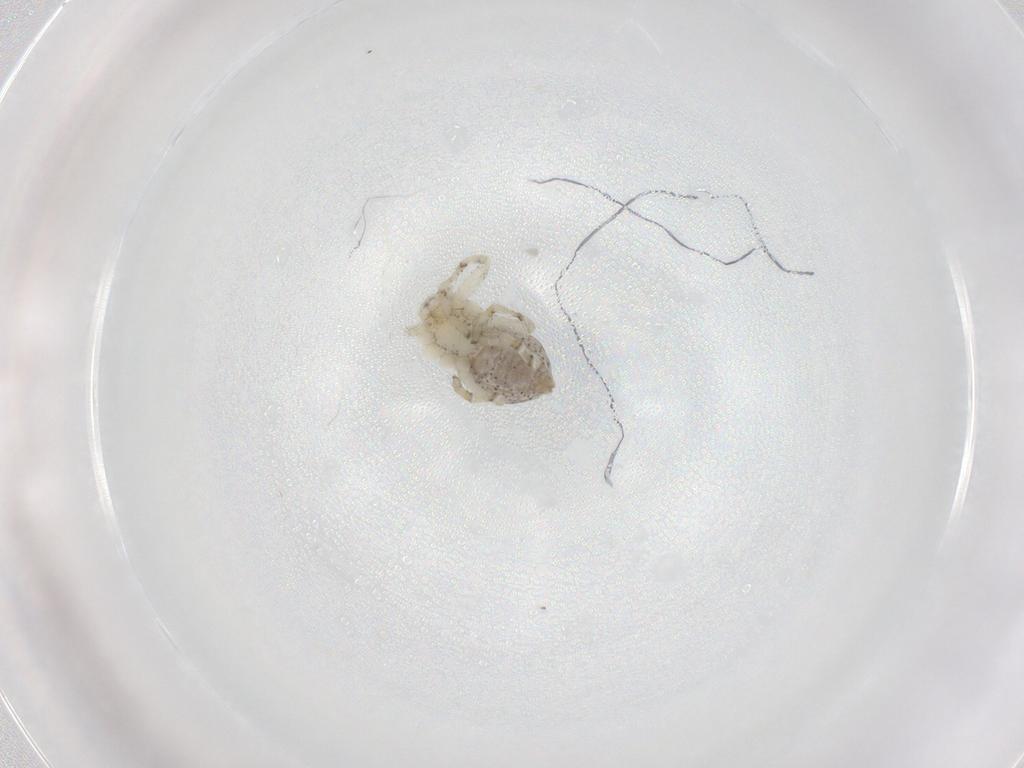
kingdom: Animalia
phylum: Arthropoda
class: Arachnida
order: Araneae
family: Philodromidae
